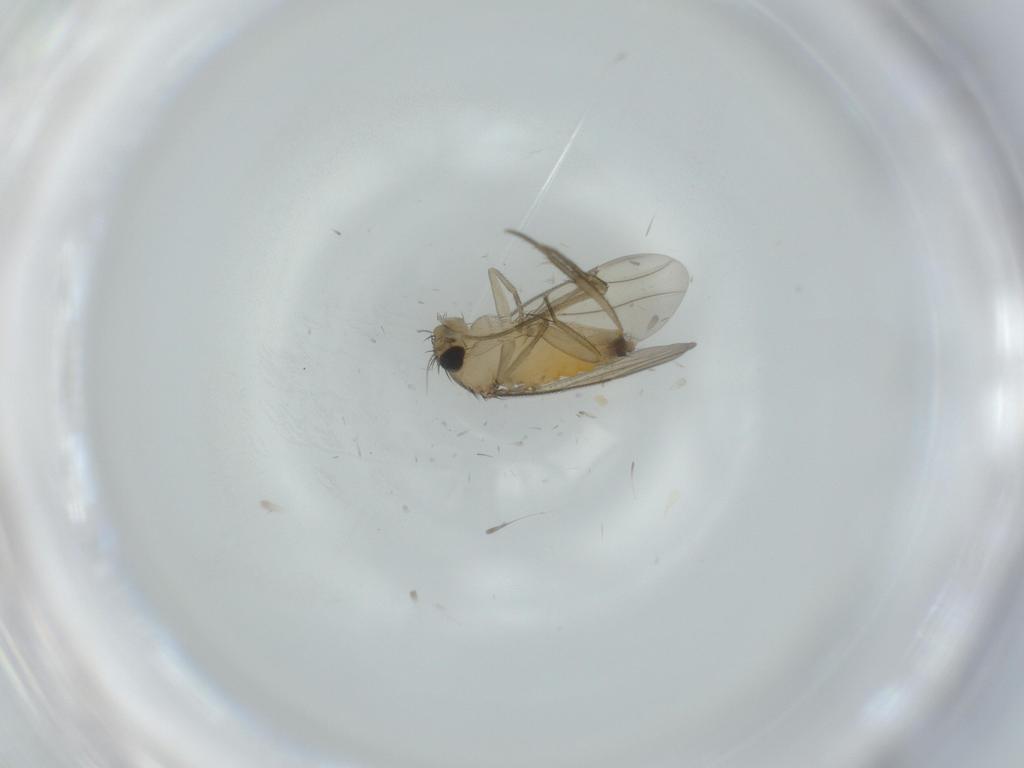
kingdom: Animalia
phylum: Arthropoda
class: Insecta
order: Diptera
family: Phoridae
